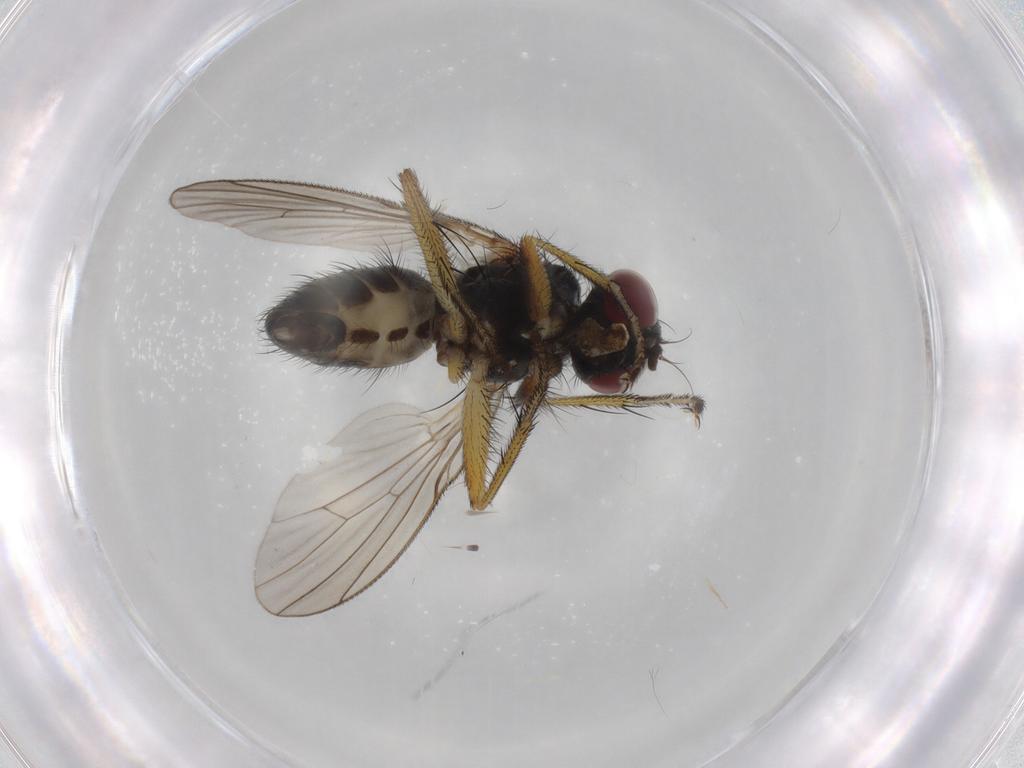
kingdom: Animalia
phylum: Arthropoda
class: Insecta
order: Diptera
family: Muscidae
